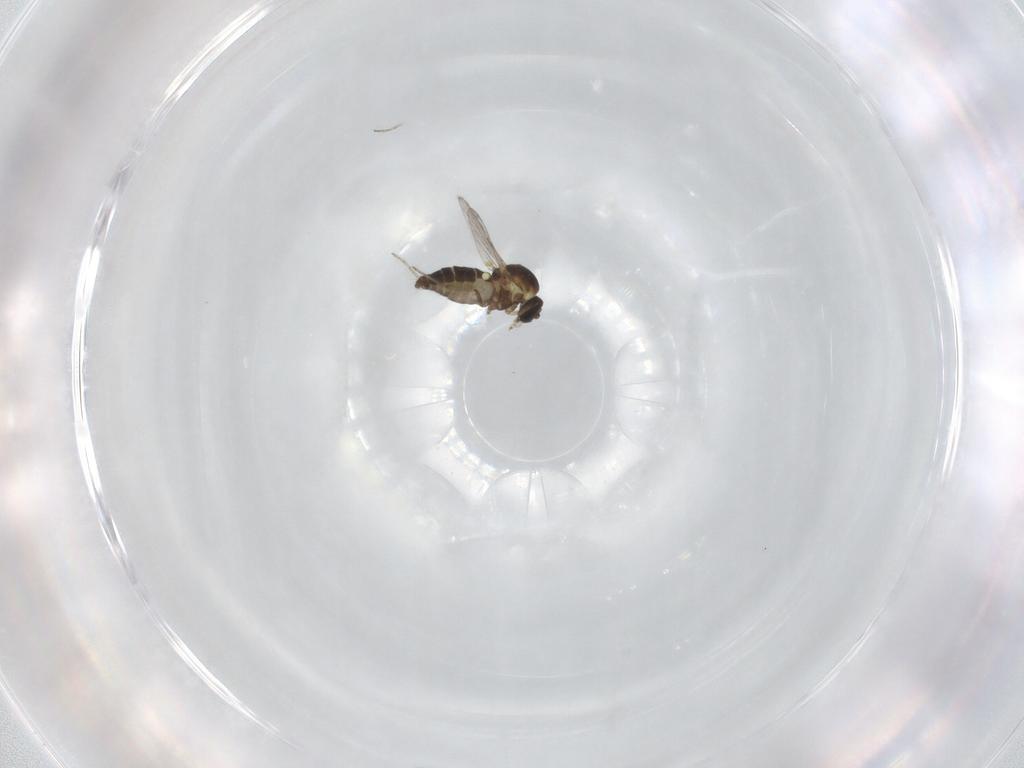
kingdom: Animalia
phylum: Arthropoda
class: Insecta
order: Diptera
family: Ceratopogonidae
